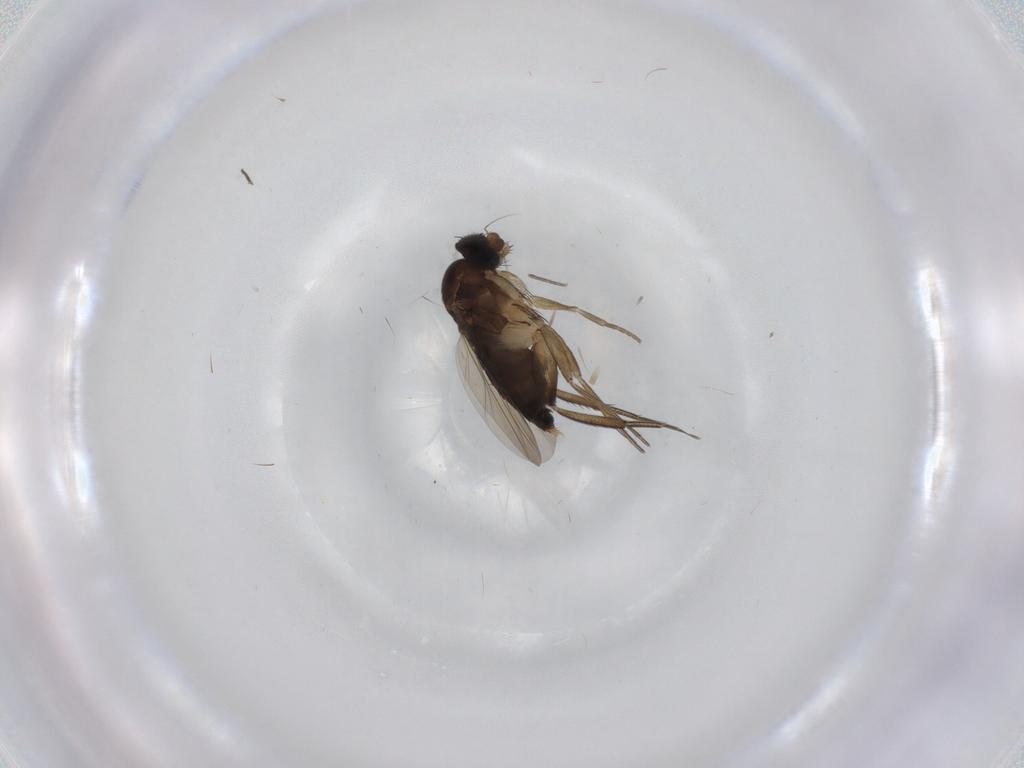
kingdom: Animalia
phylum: Arthropoda
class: Insecta
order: Diptera
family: Phoridae
